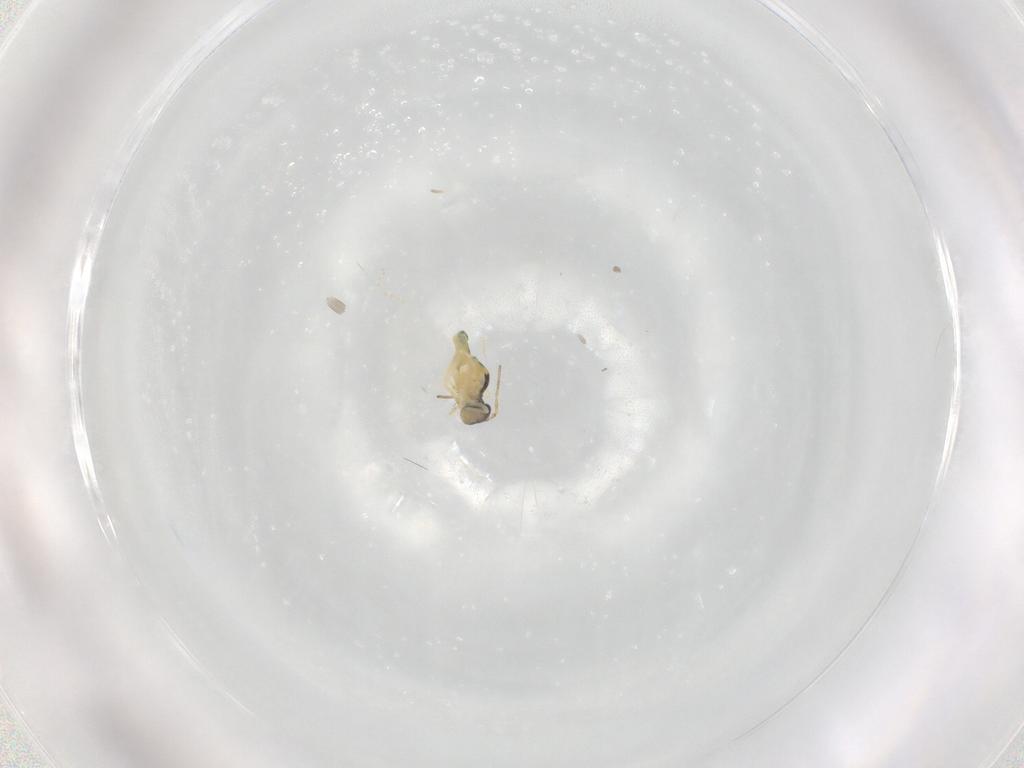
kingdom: Animalia
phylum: Arthropoda
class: Collembola
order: Symphypleona
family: Bourletiellidae
